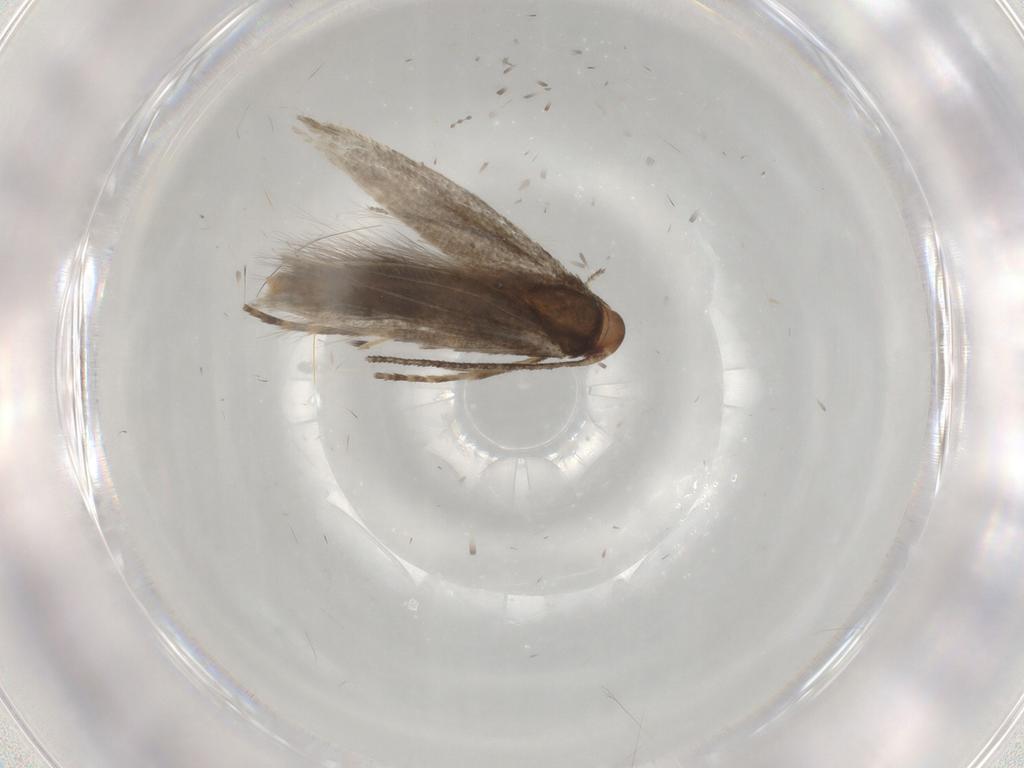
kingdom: Animalia
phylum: Arthropoda
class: Insecta
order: Lepidoptera
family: Momphidae
